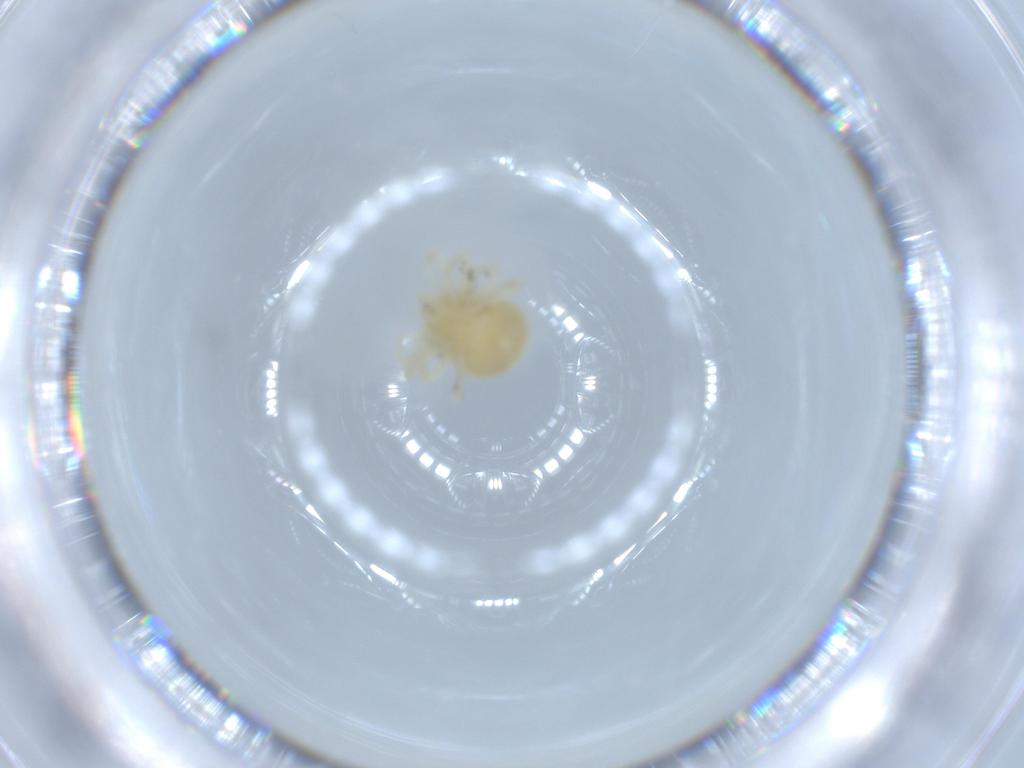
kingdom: Animalia
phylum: Arthropoda
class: Arachnida
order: Trombidiformes
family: Anystidae
